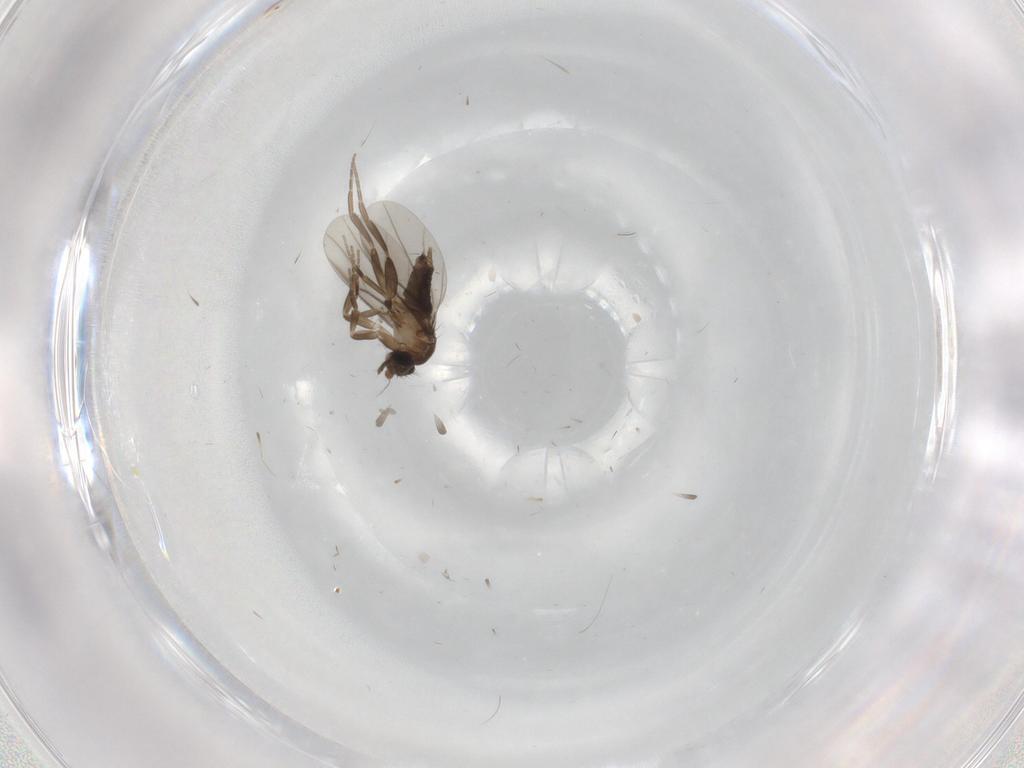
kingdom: Animalia
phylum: Arthropoda
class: Insecta
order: Diptera
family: Phoridae
